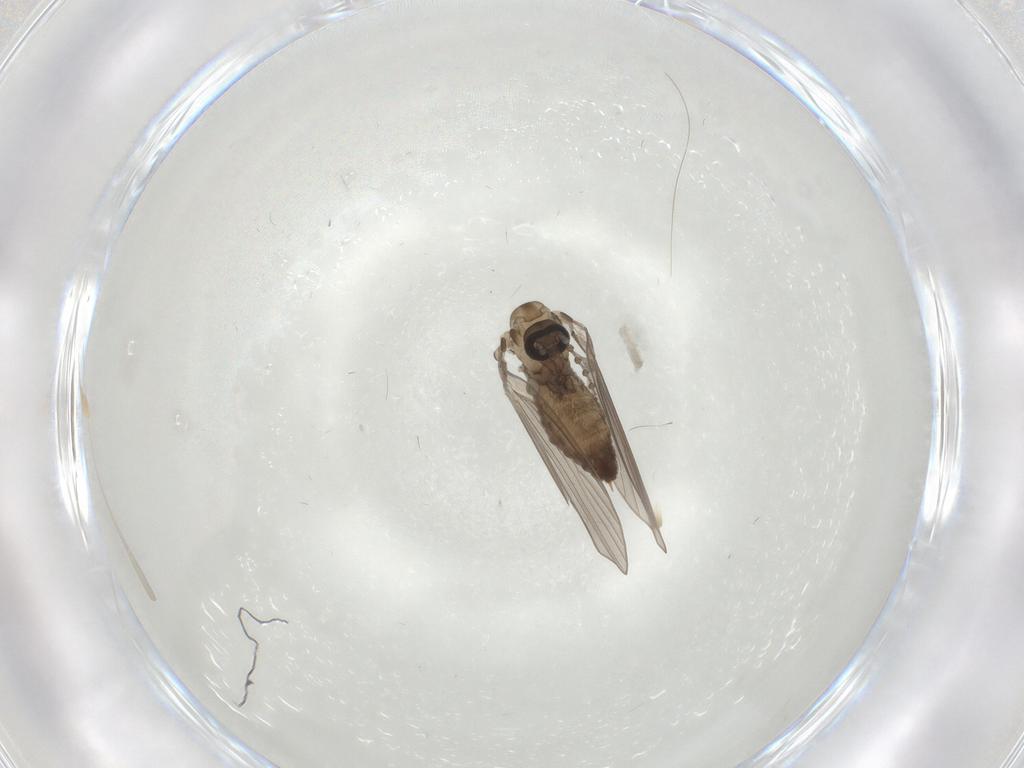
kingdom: Animalia
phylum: Arthropoda
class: Insecta
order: Diptera
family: Psychodidae
